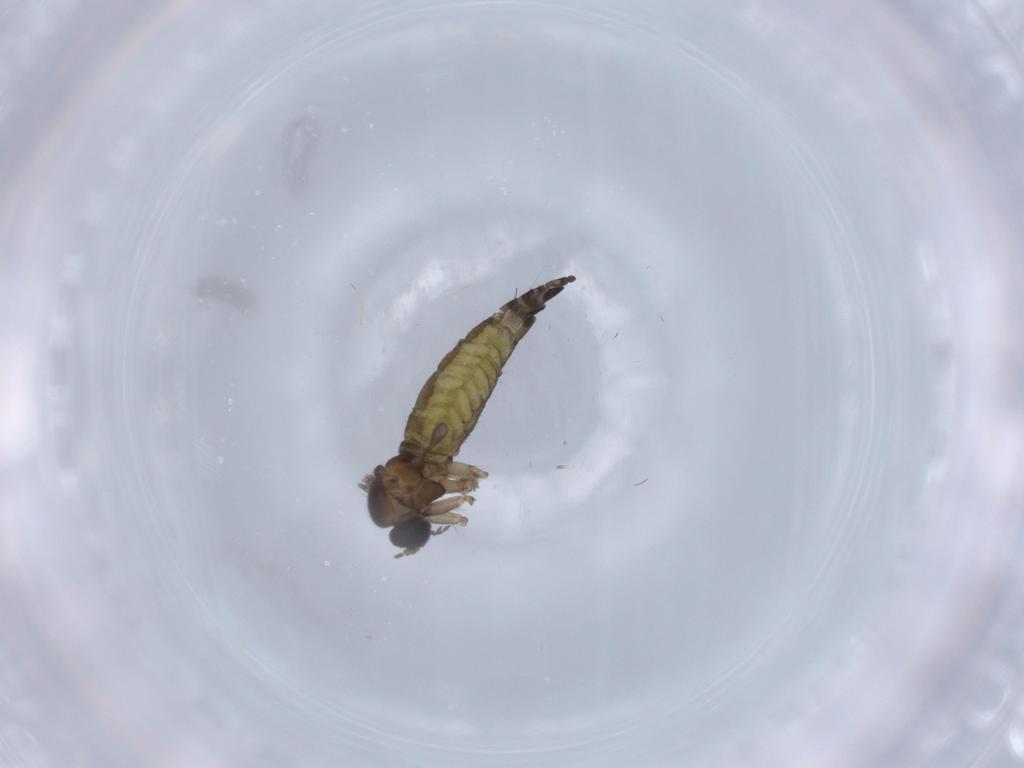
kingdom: Animalia
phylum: Arthropoda
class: Insecta
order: Diptera
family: Sciaridae
